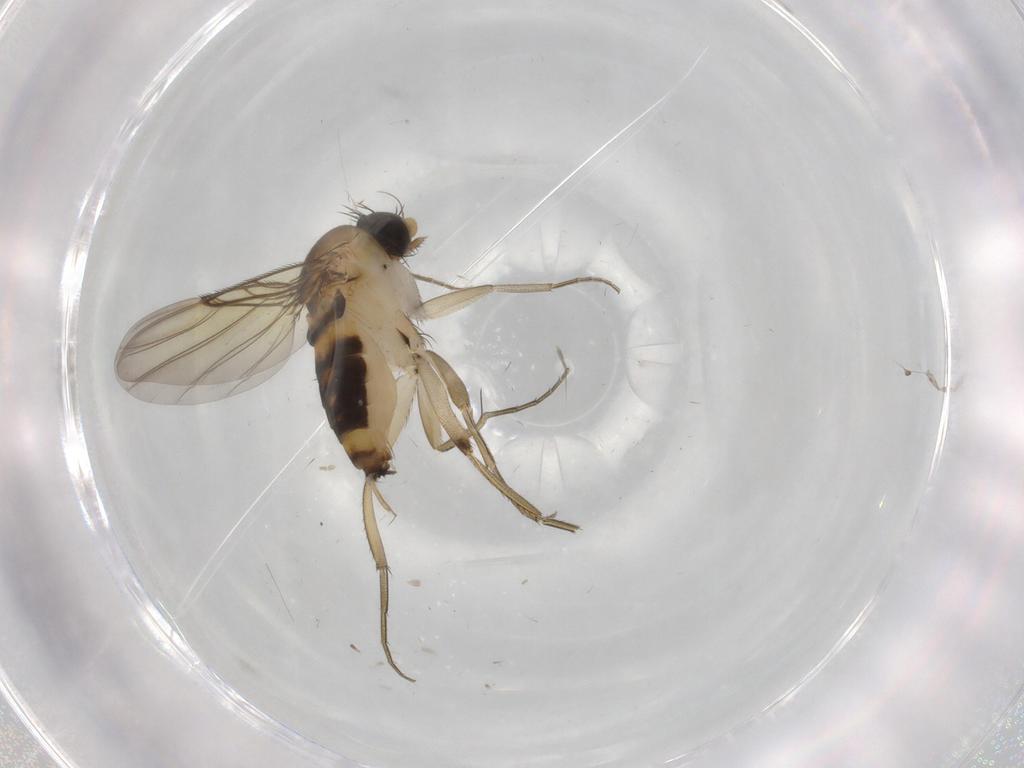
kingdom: Animalia
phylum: Arthropoda
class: Insecta
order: Diptera
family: Phoridae
